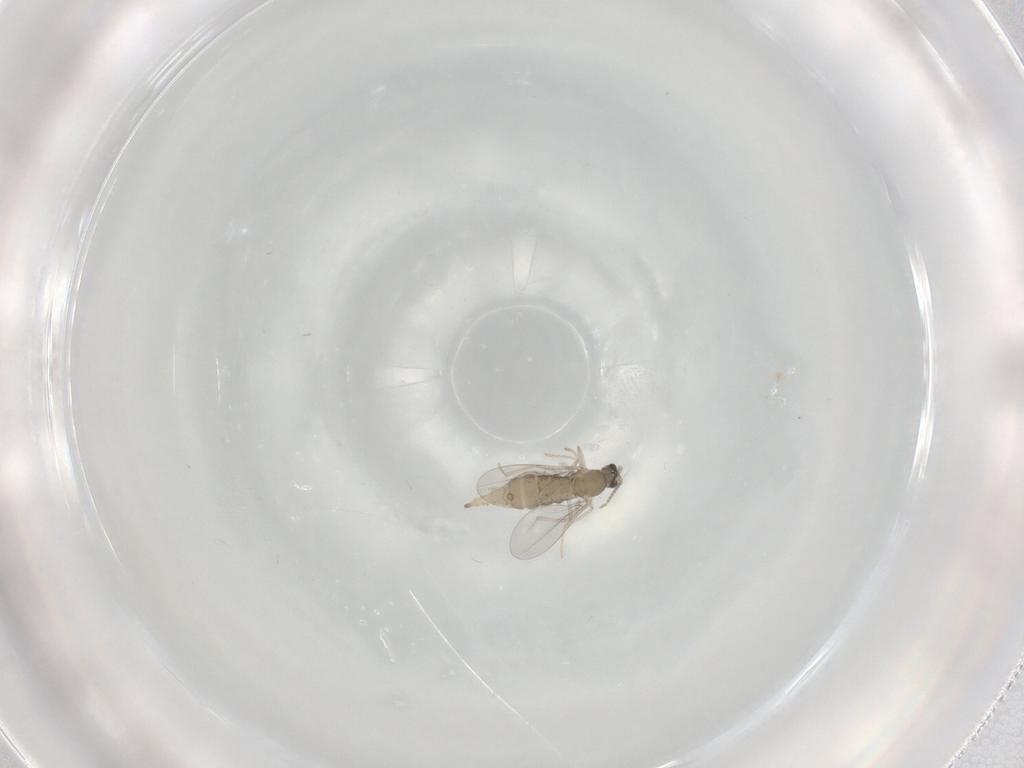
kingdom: Animalia
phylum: Arthropoda
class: Insecta
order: Diptera
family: Cecidomyiidae
